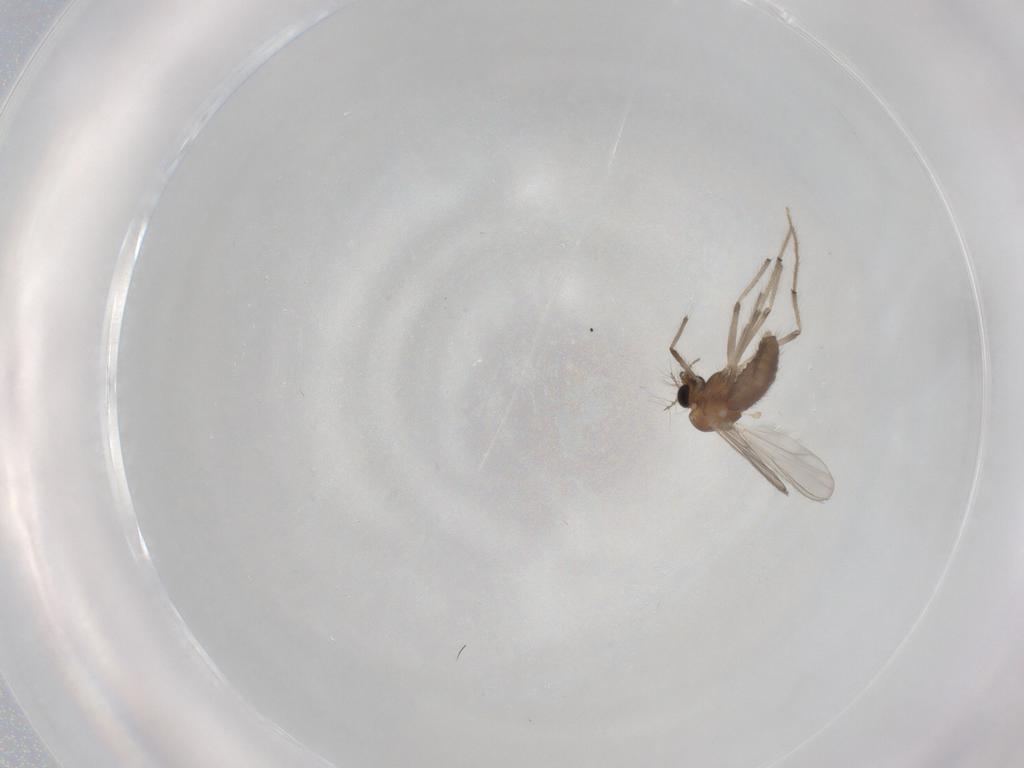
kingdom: Animalia
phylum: Arthropoda
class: Insecta
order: Diptera
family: Chironomidae
